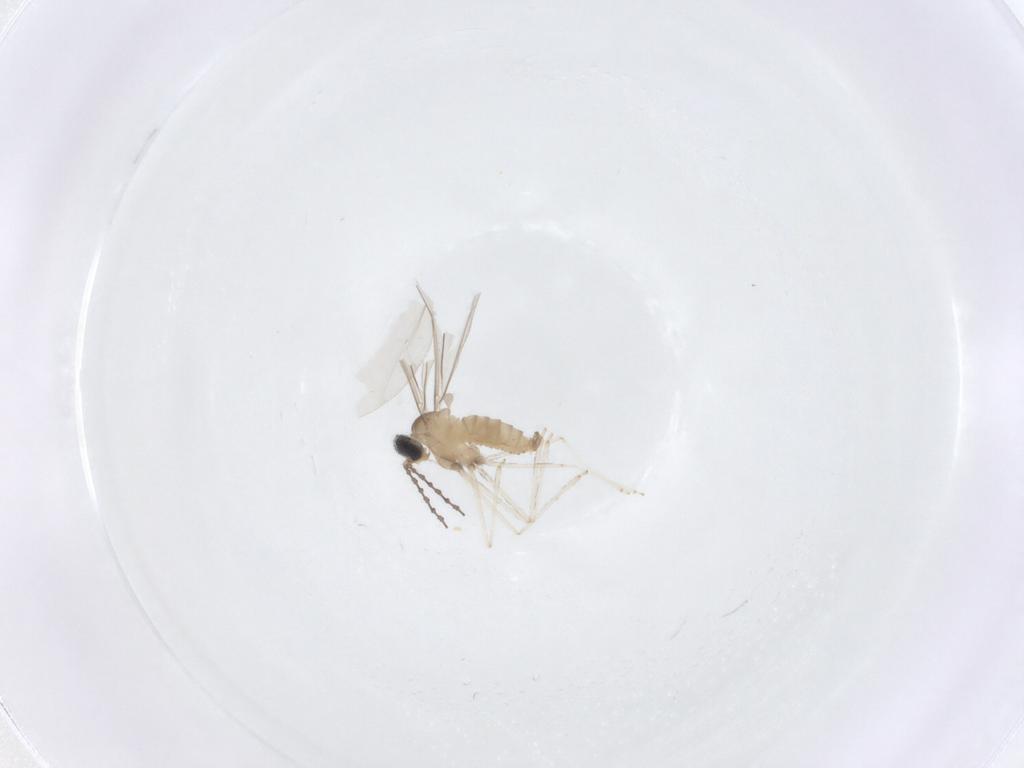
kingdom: Animalia
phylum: Arthropoda
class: Insecta
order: Diptera
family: Cecidomyiidae
